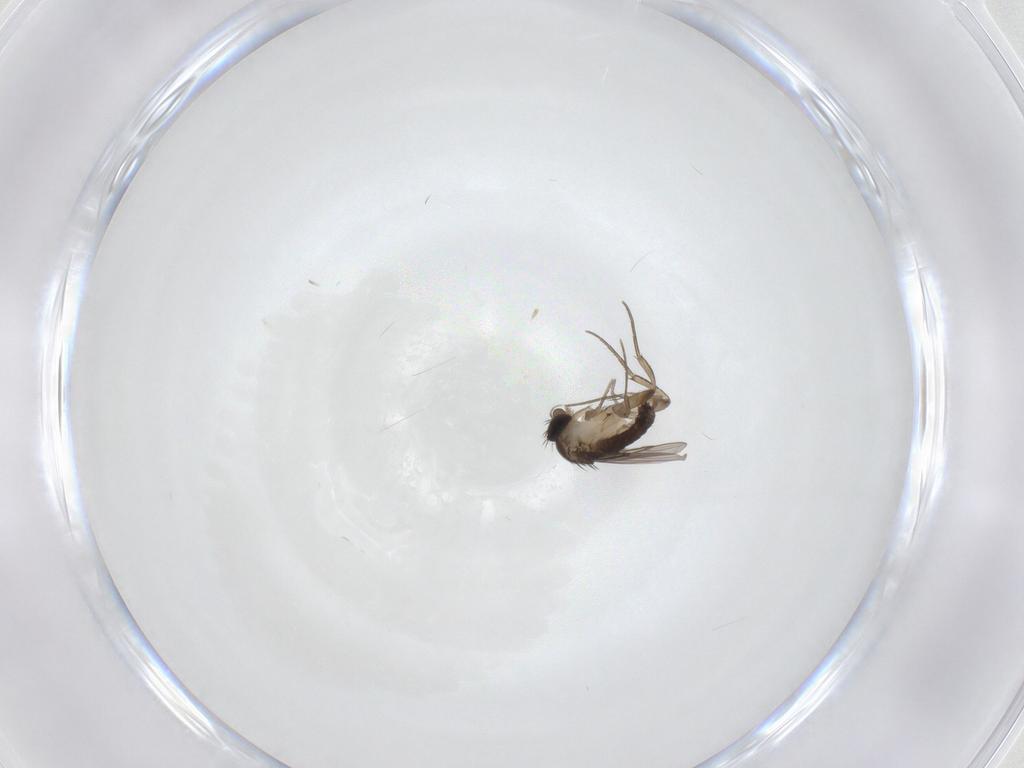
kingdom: Animalia
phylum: Arthropoda
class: Insecta
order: Diptera
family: Phoridae
